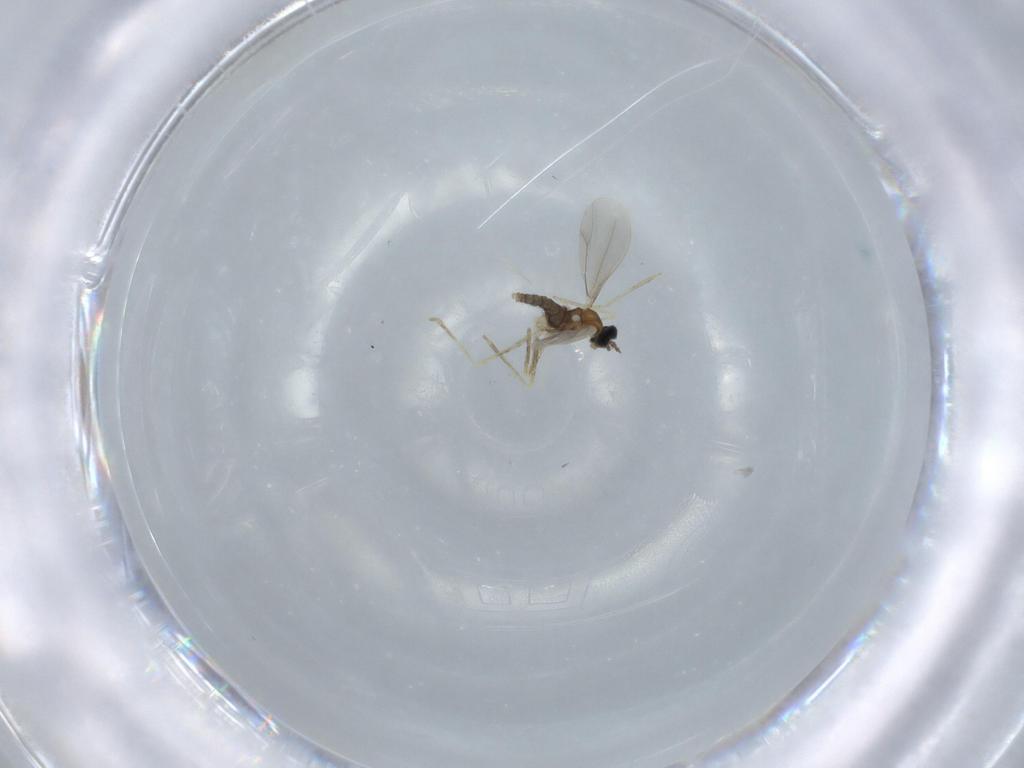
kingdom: Animalia
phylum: Arthropoda
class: Insecta
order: Diptera
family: Cecidomyiidae
